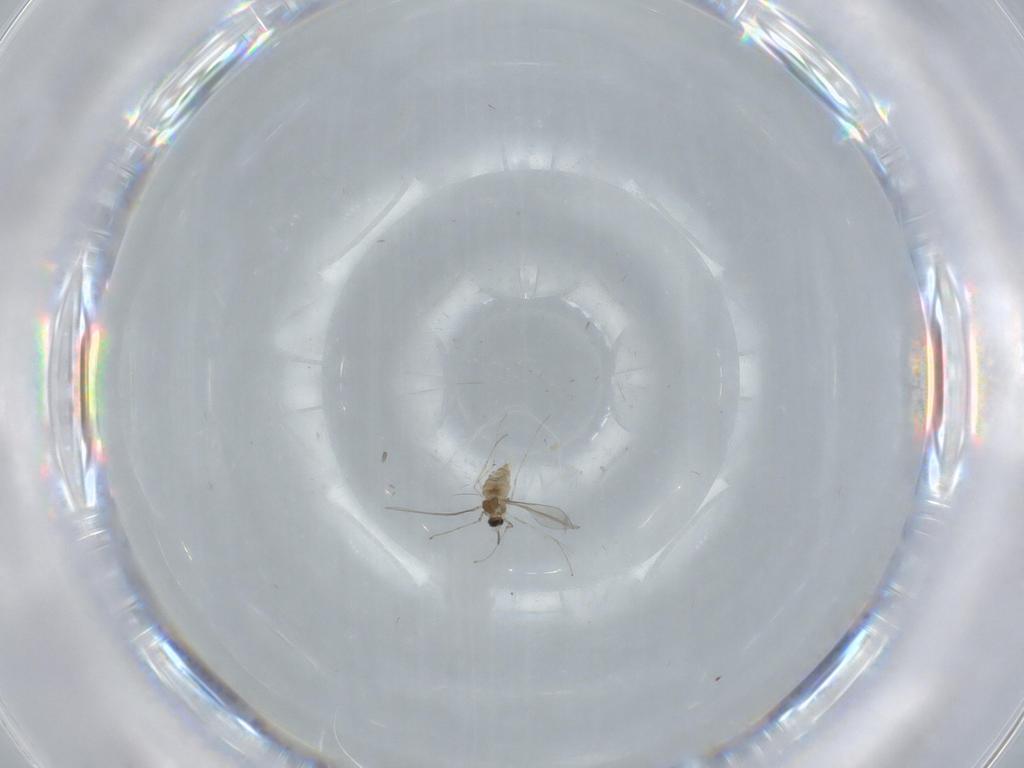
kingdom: Animalia
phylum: Arthropoda
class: Insecta
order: Diptera
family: Cecidomyiidae
